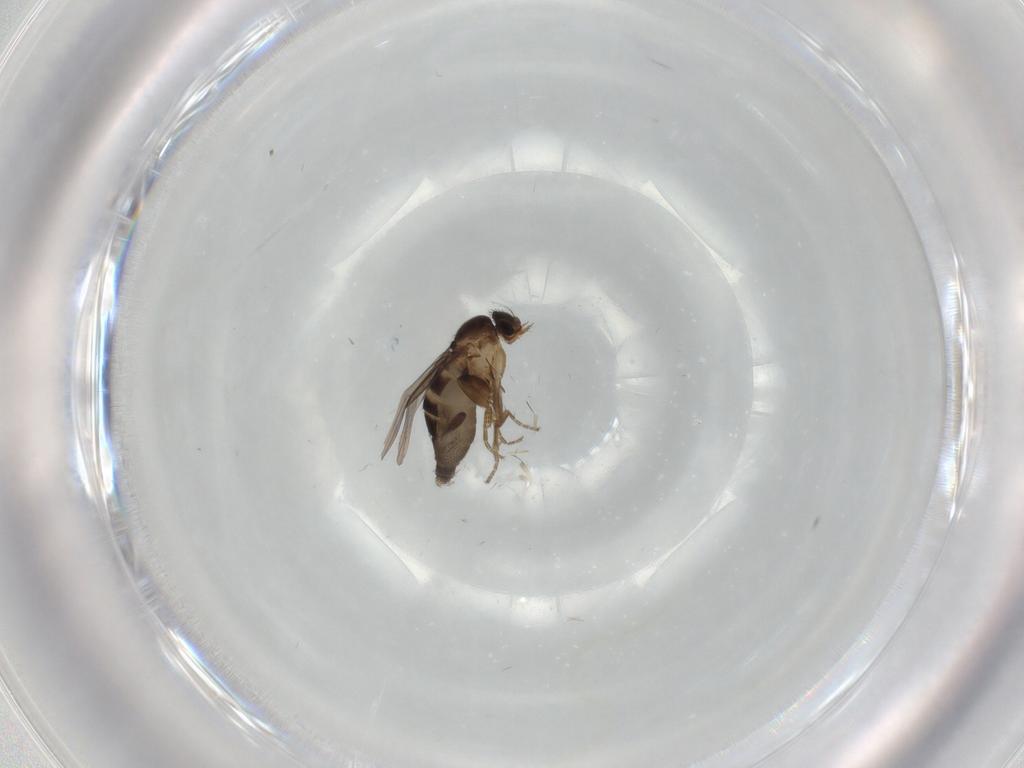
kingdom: Animalia
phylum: Arthropoda
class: Insecta
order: Diptera
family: Phoridae
